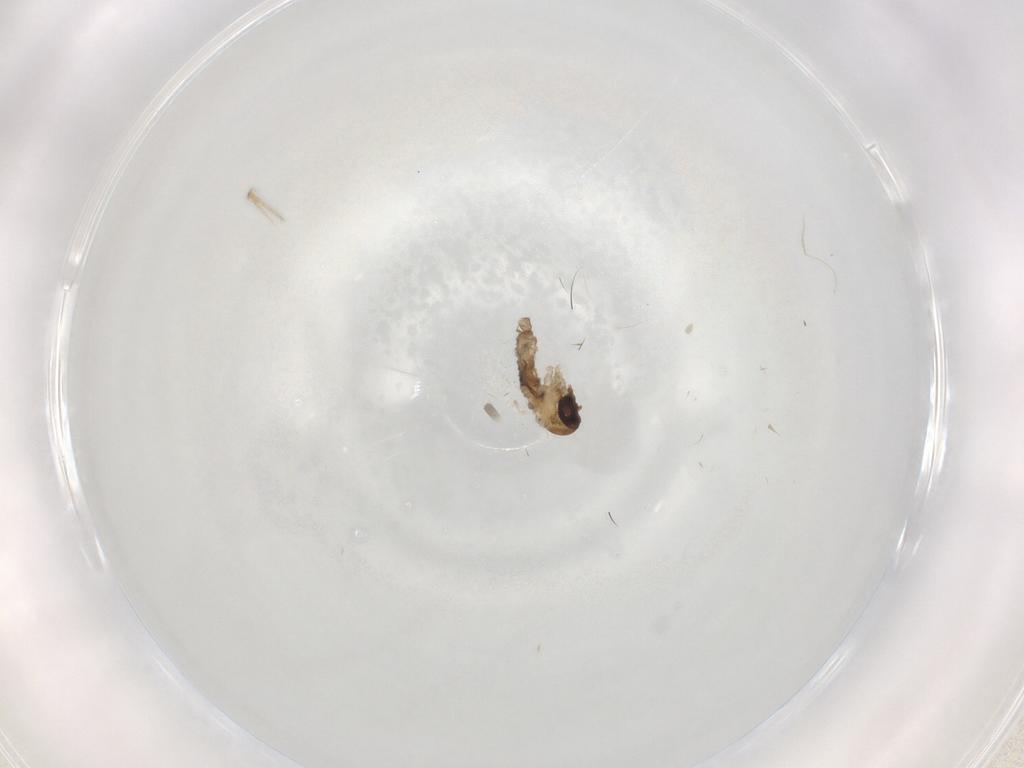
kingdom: Animalia
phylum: Arthropoda
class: Insecta
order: Diptera
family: Psychodidae
